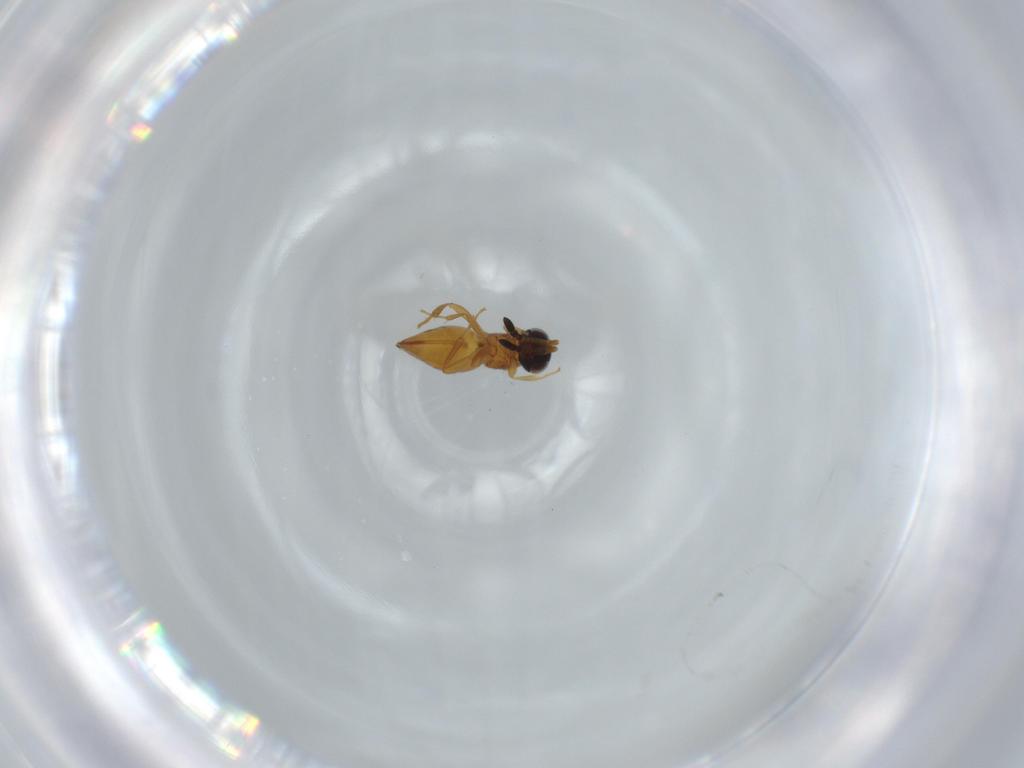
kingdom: Animalia
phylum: Arthropoda
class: Insecta
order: Hymenoptera
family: Ceraphronidae
